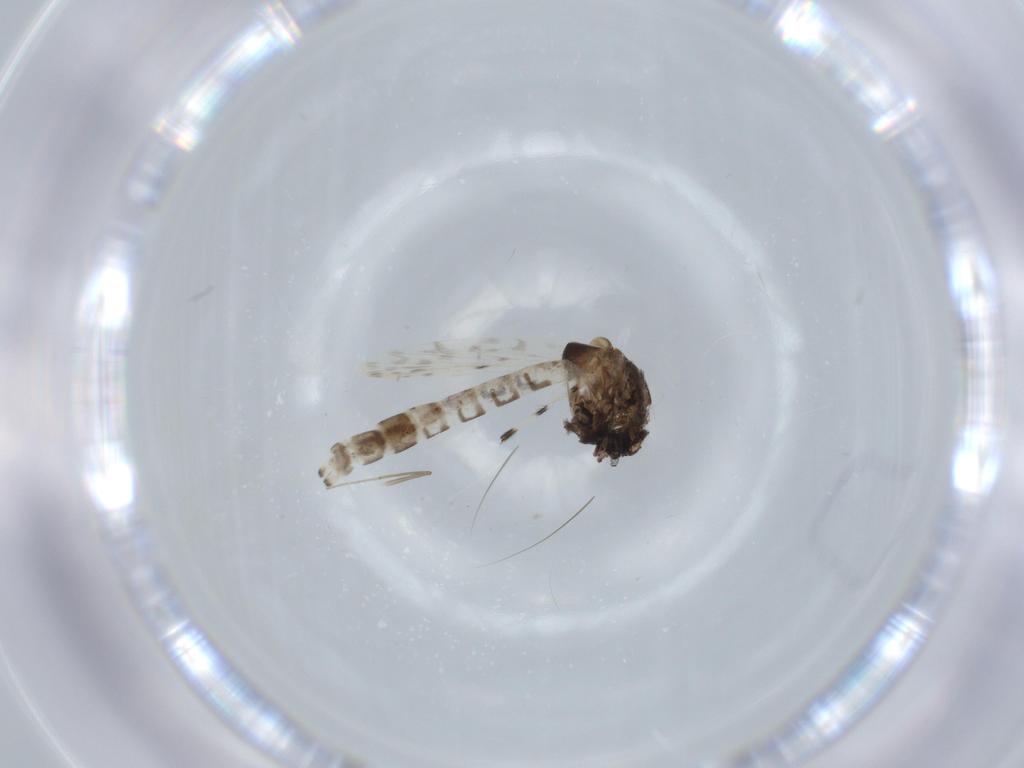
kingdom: Animalia
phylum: Arthropoda
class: Insecta
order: Diptera
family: Chironomidae
